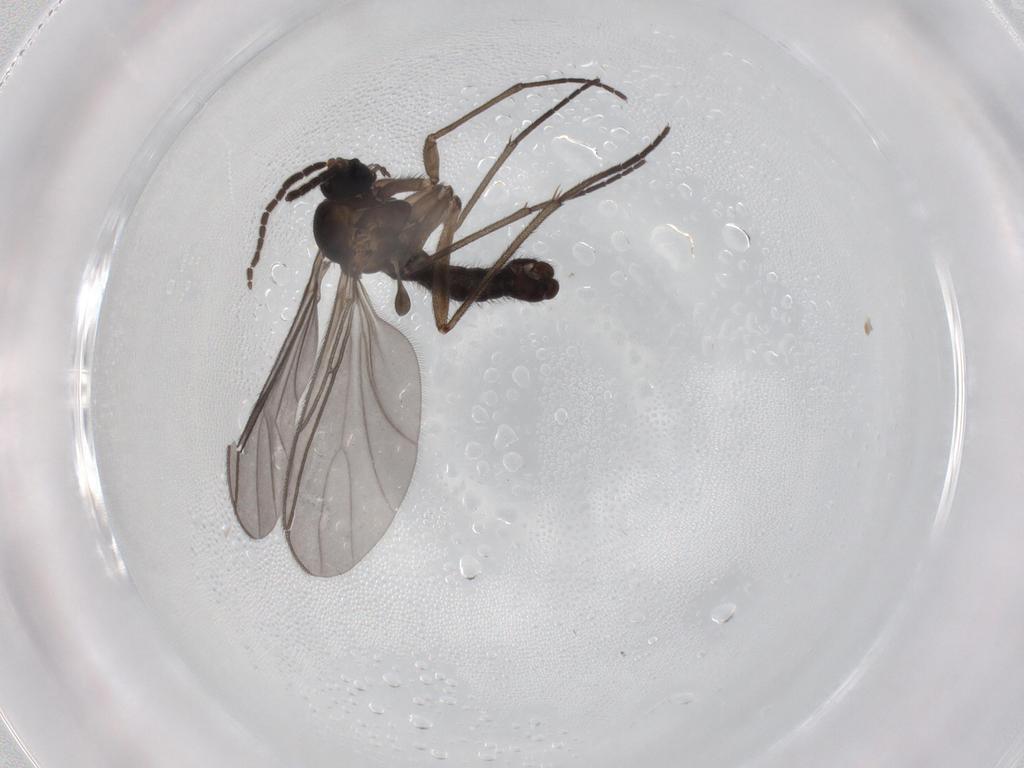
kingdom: Animalia
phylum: Arthropoda
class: Insecta
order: Diptera
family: Sciaridae
